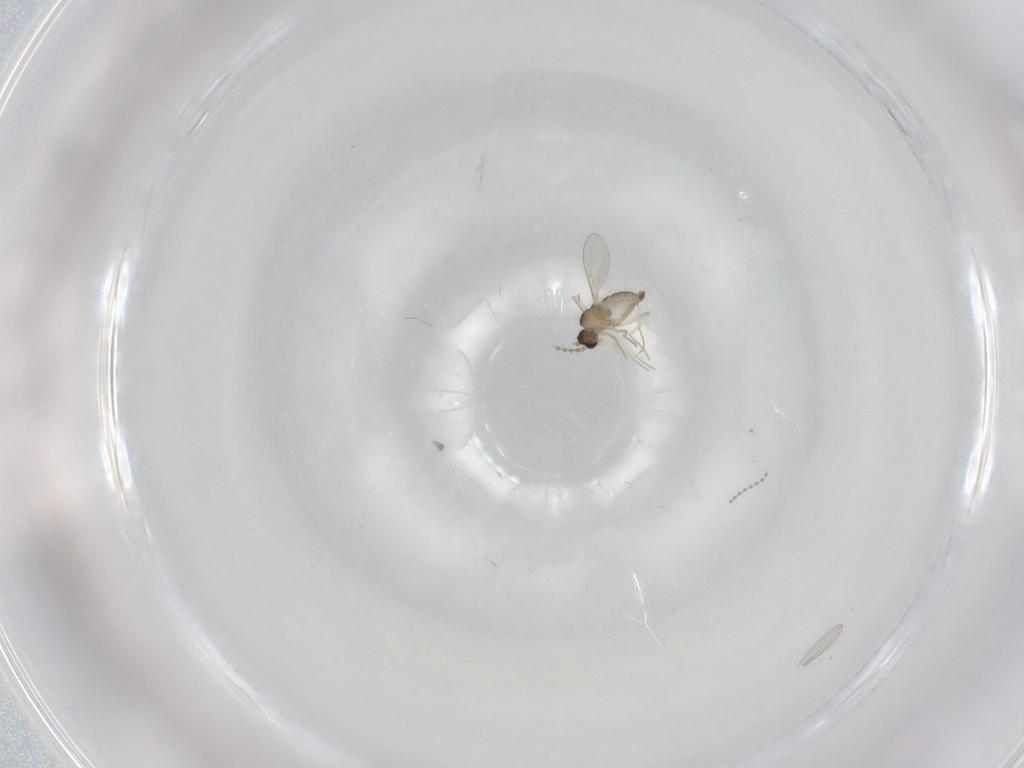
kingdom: Animalia
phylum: Arthropoda
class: Insecta
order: Diptera
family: Cecidomyiidae
